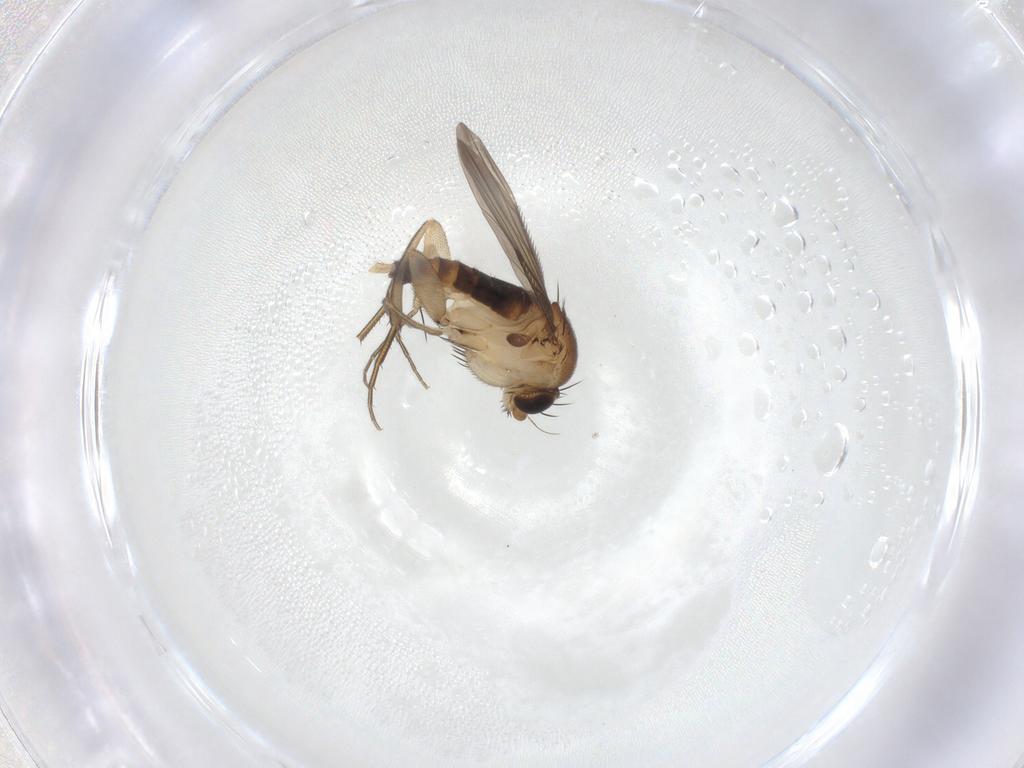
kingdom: Animalia
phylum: Arthropoda
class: Insecta
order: Diptera
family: Phoridae
